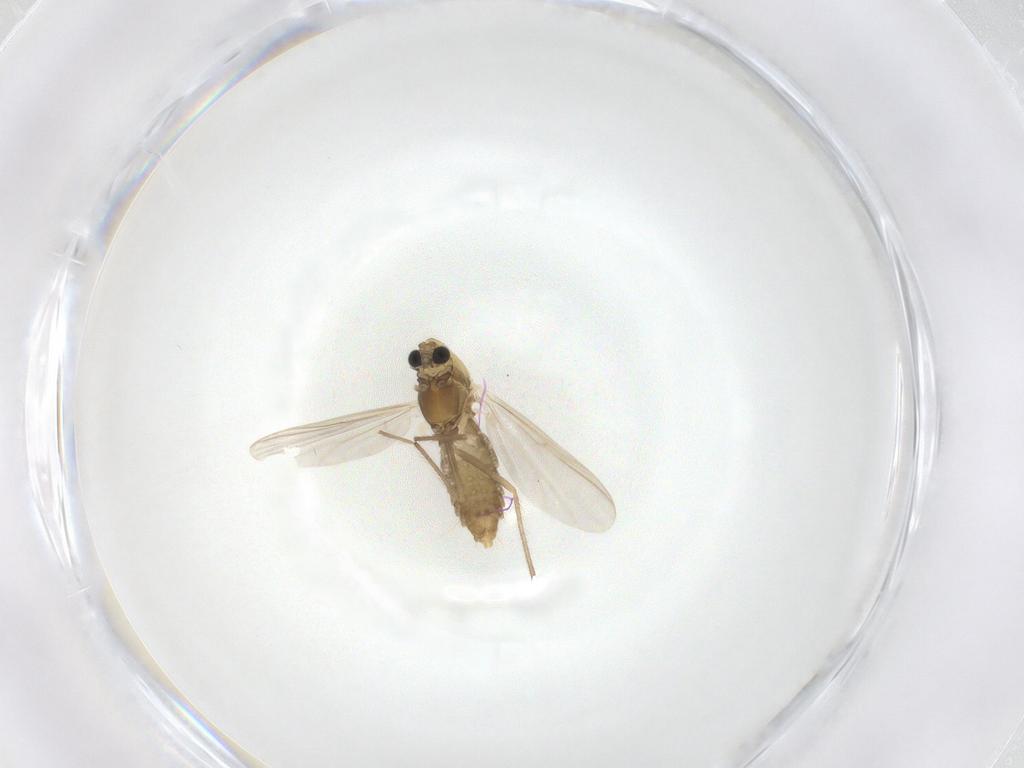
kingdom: Animalia
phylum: Arthropoda
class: Insecta
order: Diptera
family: Chironomidae
